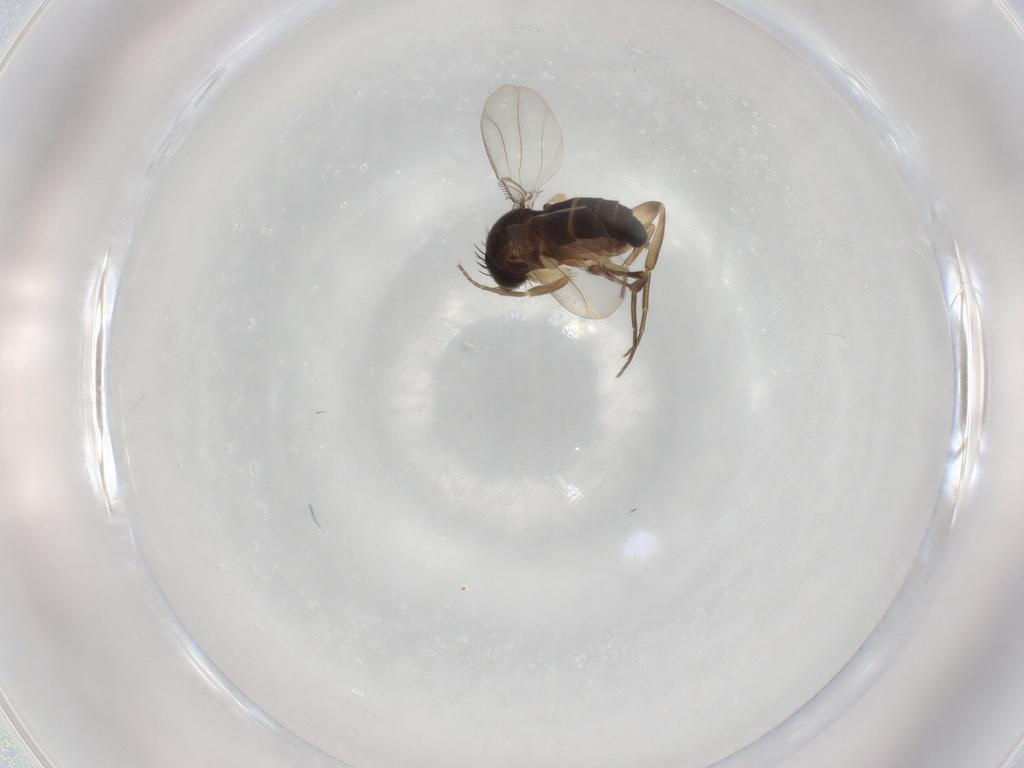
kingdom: Animalia
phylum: Arthropoda
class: Insecta
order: Diptera
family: Phoridae
